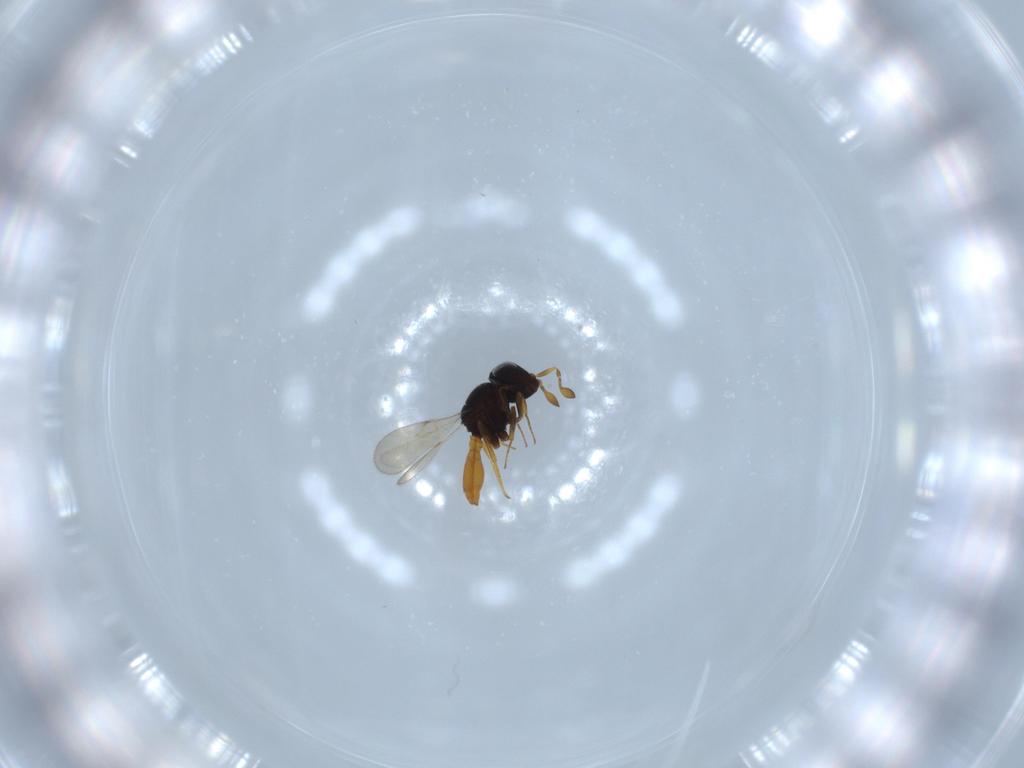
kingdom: Animalia
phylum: Arthropoda
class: Insecta
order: Hymenoptera
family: Scelionidae
